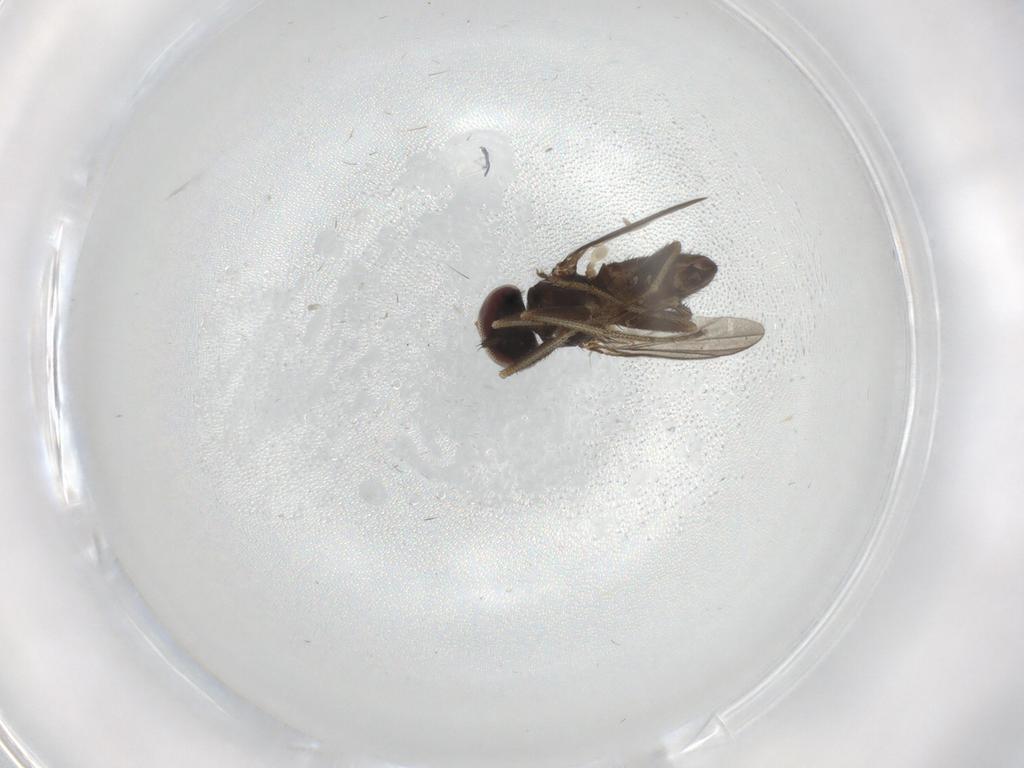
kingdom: Animalia
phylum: Arthropoda
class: Insecta
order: Diptera
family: Dolichopodidae
